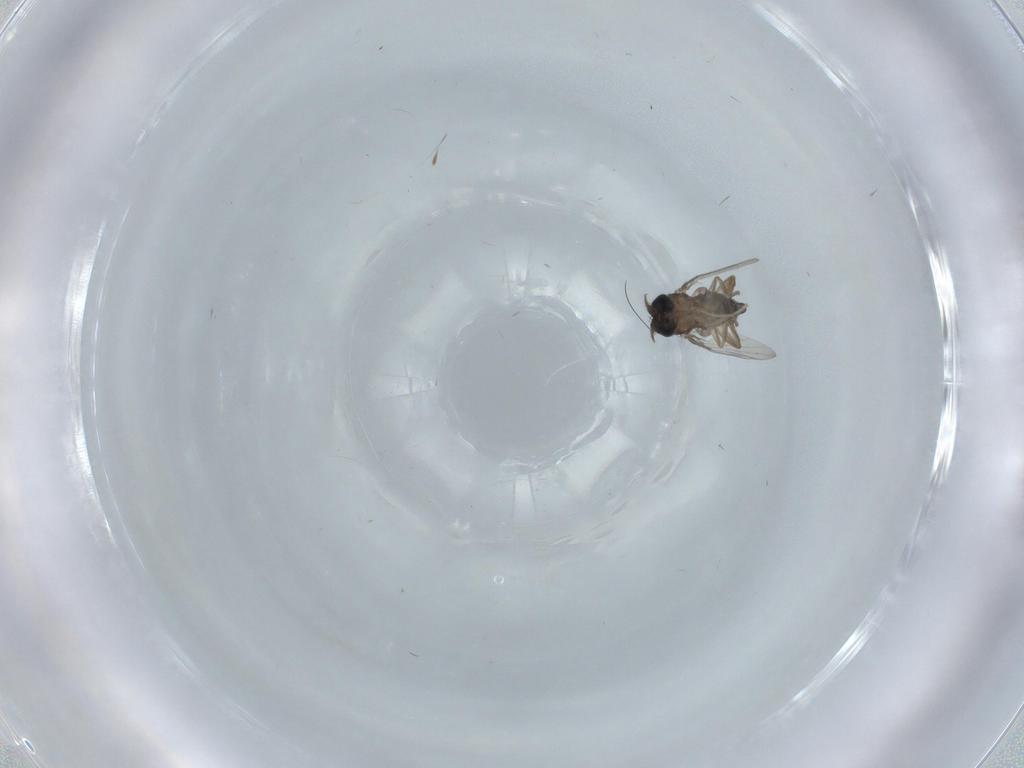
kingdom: Animalia
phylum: Arthropoda
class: Insecta
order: Diptera
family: Phoridae
